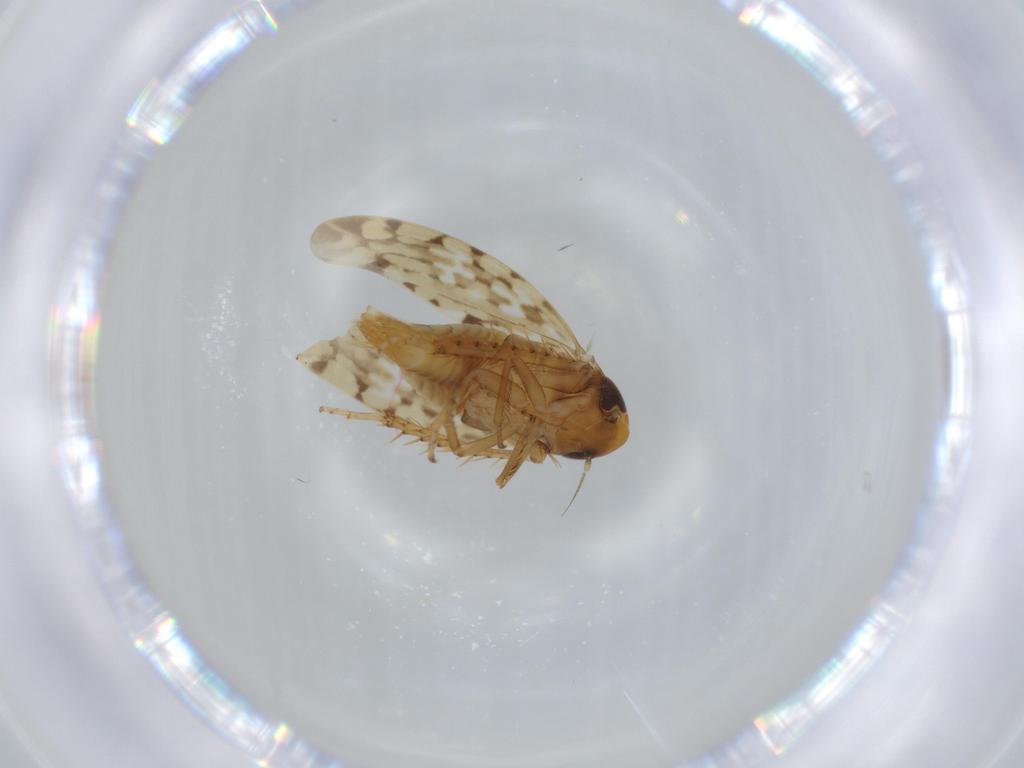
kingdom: Animalia
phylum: Arthropoda
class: Insecta
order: Hemiptera
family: Cicadellidae
